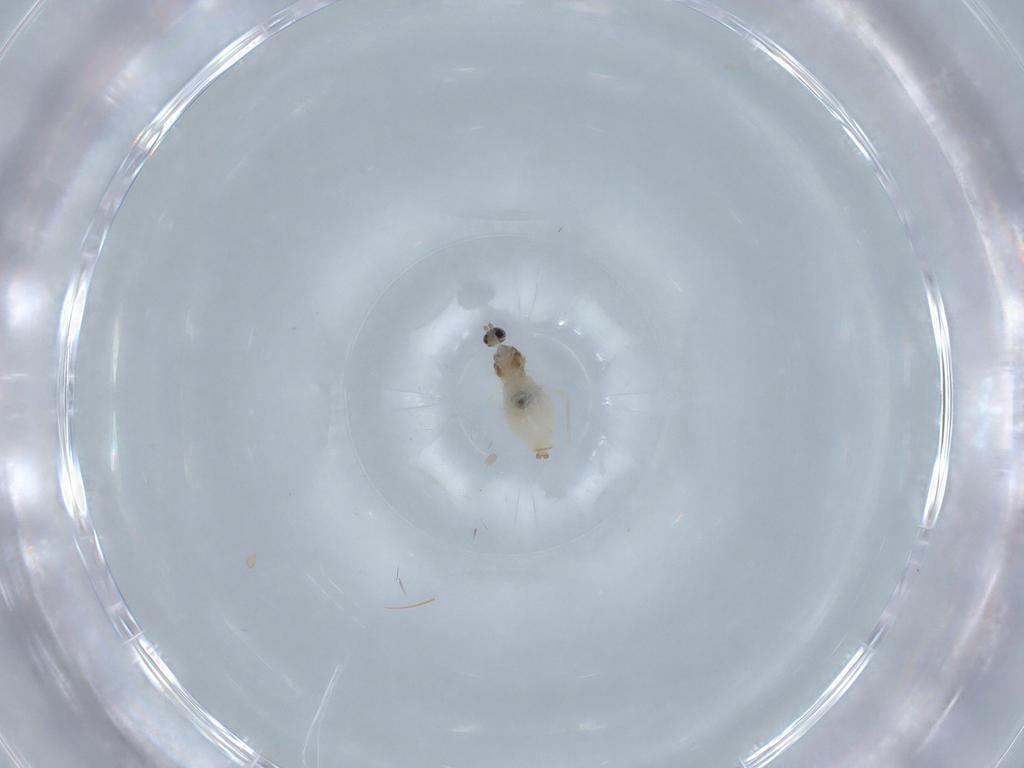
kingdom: Animalia
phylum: Arthropoda
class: Insecta
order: Diptera
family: Cecidomyiidae
